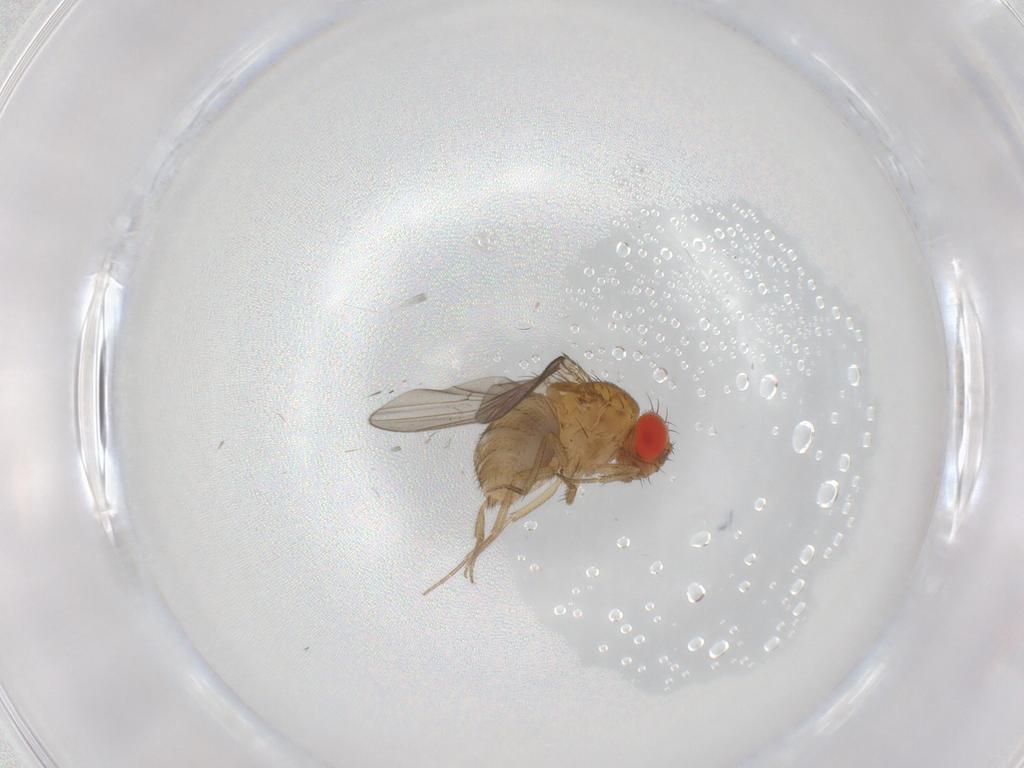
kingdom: Animalia
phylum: Arthropoda
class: Insecta
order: Diptera
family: Drosophilidae
